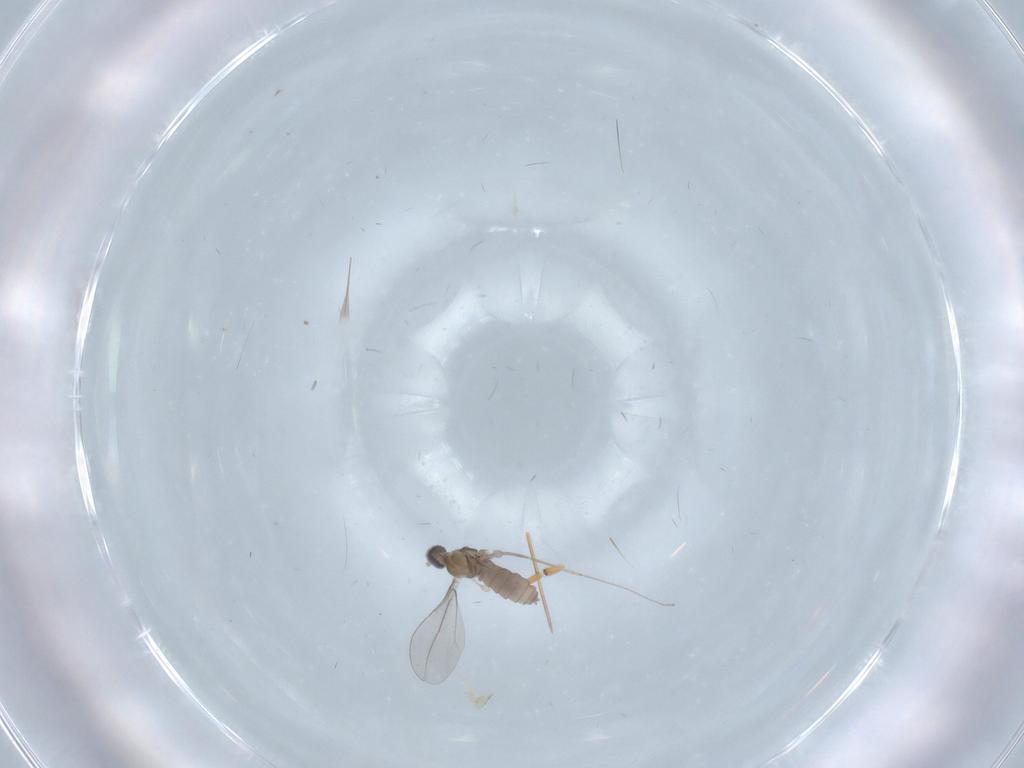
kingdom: Animalia
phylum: Arthropoda
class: Insecta
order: Diptera
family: Cecidomyiidae
